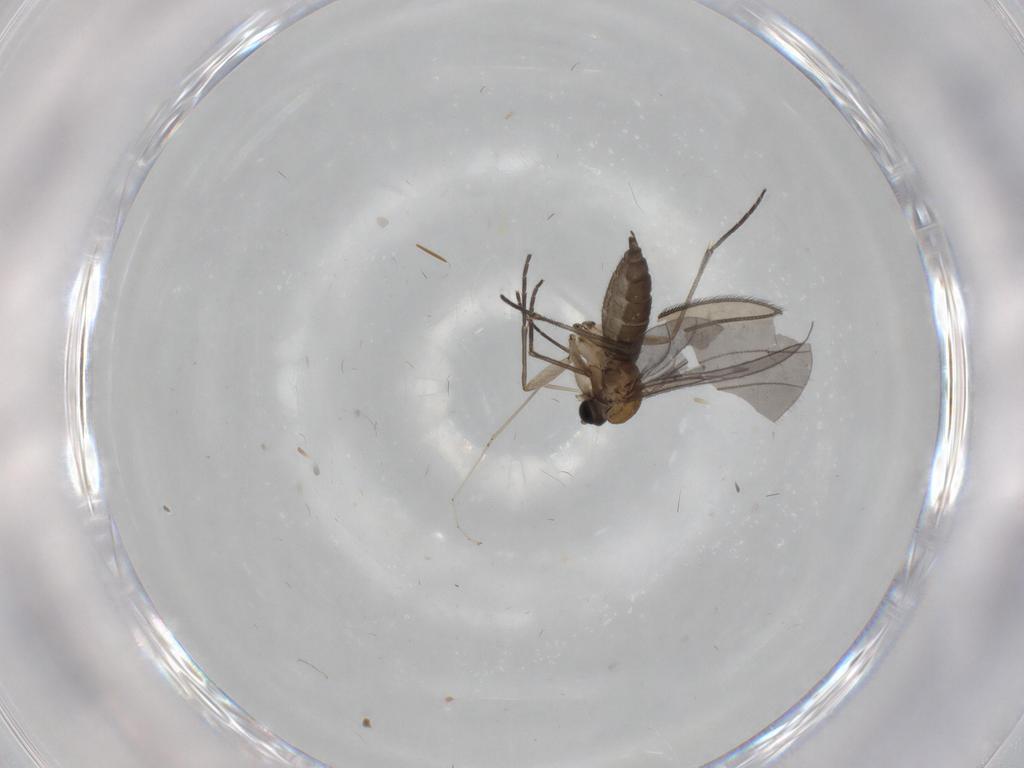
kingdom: Animalia
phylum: Arthropoda
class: Insecta
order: Diptera
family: Sciaridae
